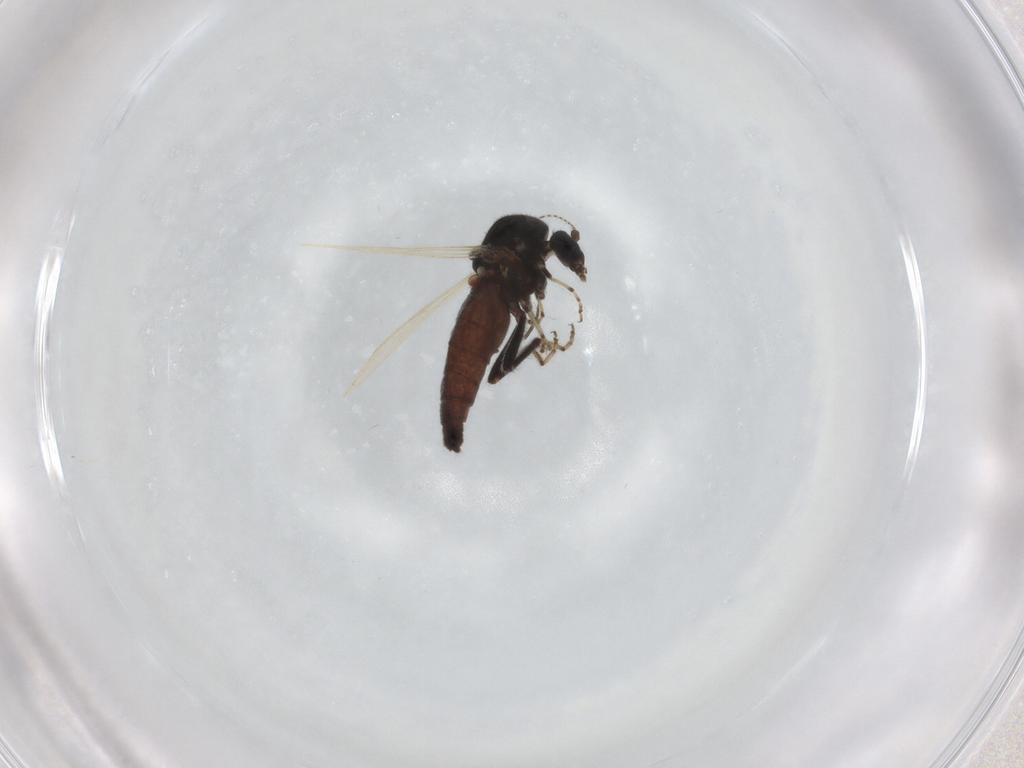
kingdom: Animalia
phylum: Arthropoda
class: Insecta
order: Diptera
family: Ceratopogonidae
